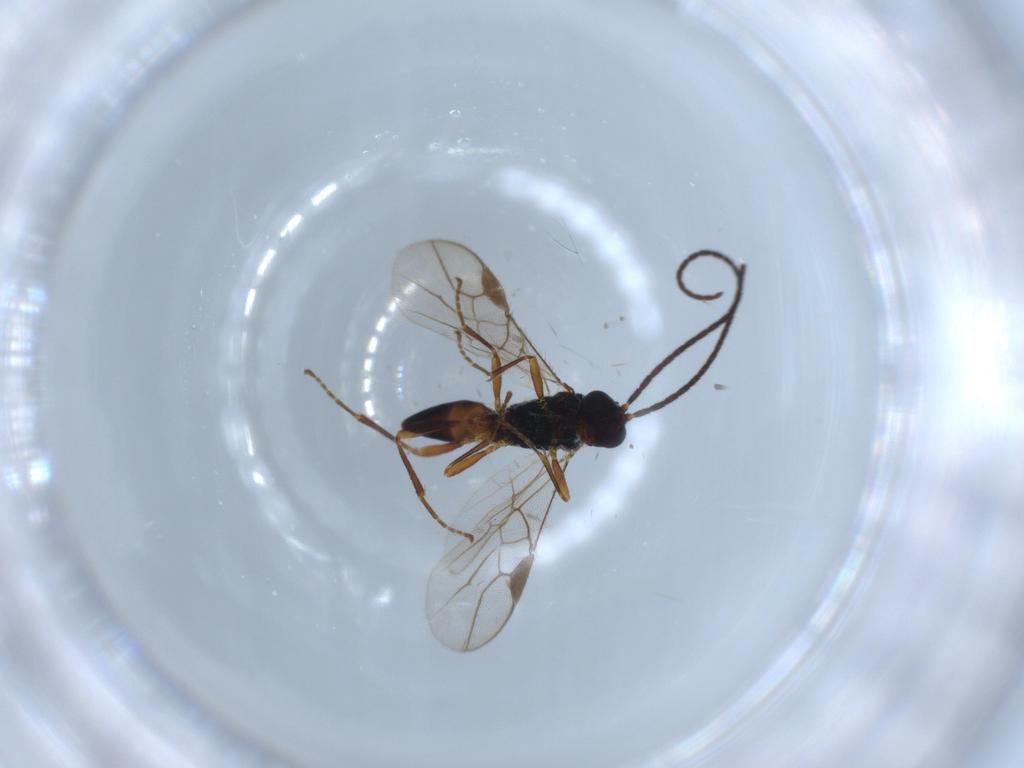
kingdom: Animalia
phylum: Arthropoda
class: Insecta
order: Hymenoptera
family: Braconidae
